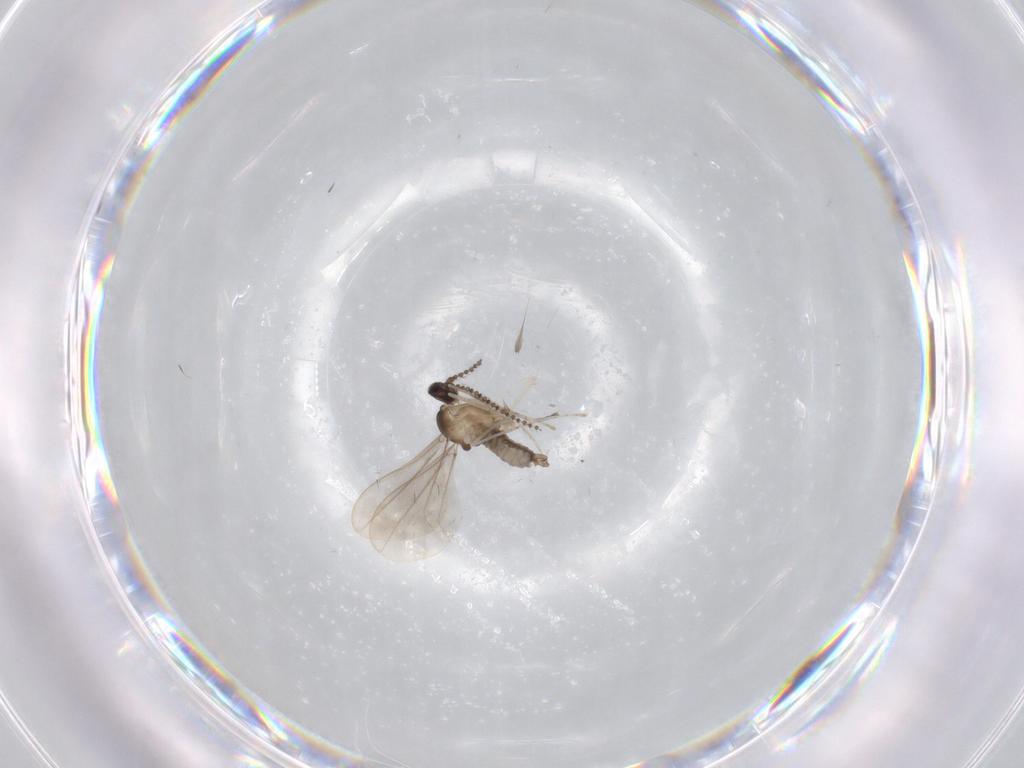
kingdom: Animalia
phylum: Arthropoda
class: Insecta
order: Diptera
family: Cecidomyiidae
